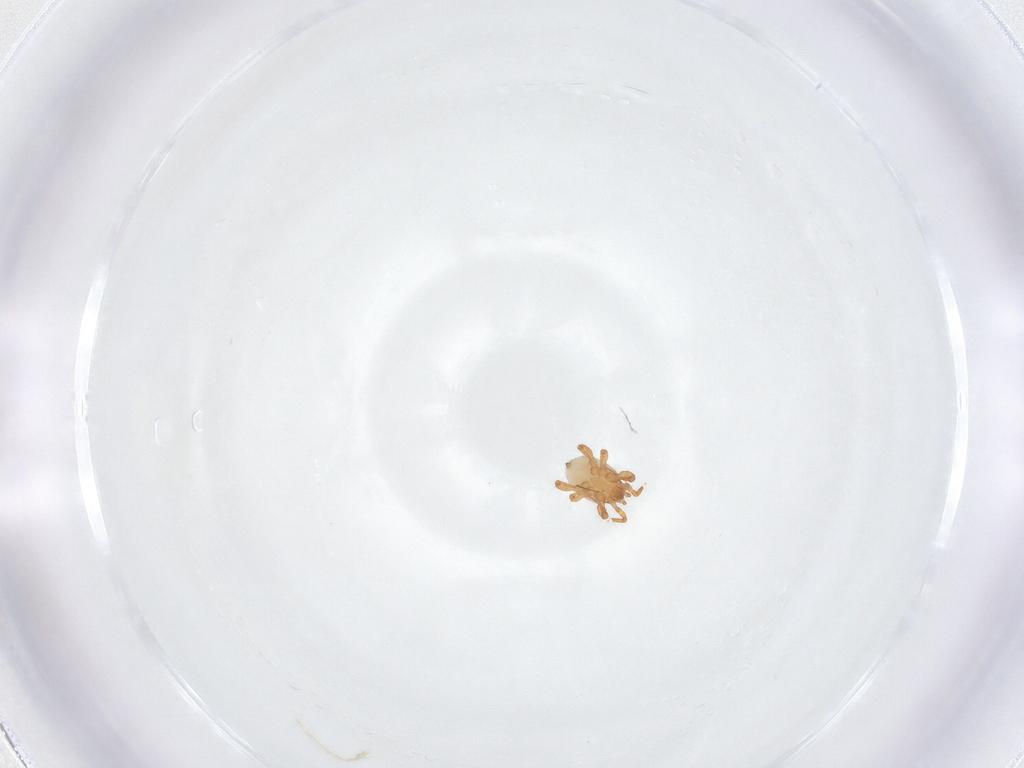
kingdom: Animalia
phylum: Arthropoda
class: Arachnida
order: Mesostigmata
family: Parasitidae
